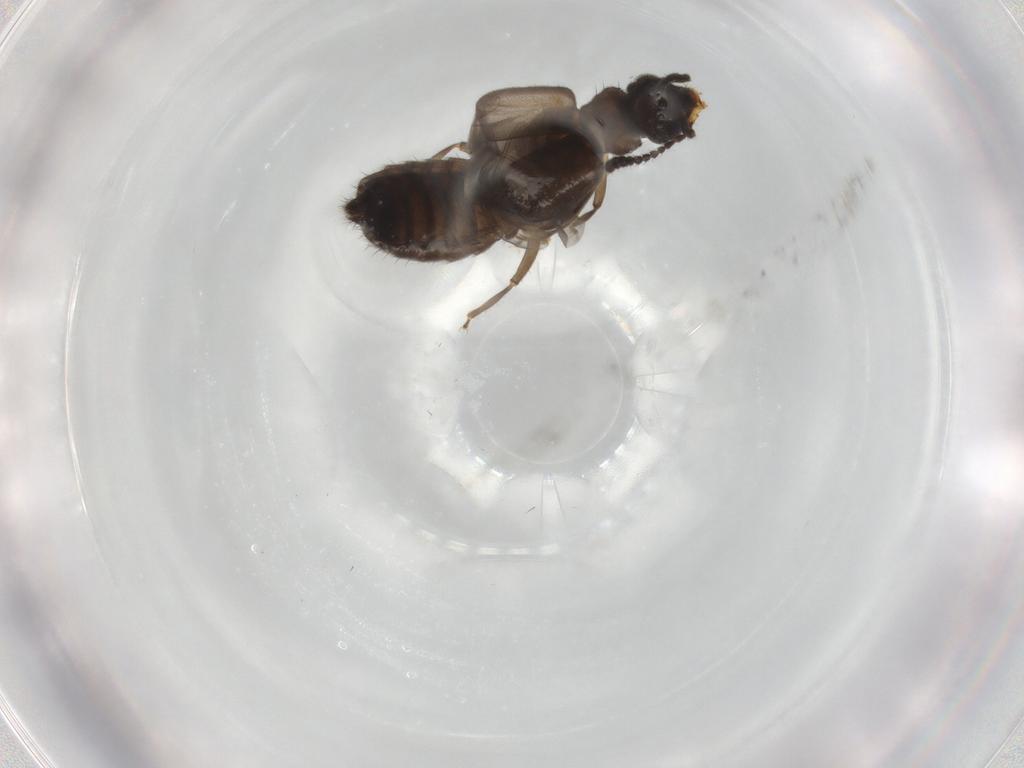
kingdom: Animalia
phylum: Arthropoda
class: Insecta
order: Coleoptera
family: Staphylinidae
